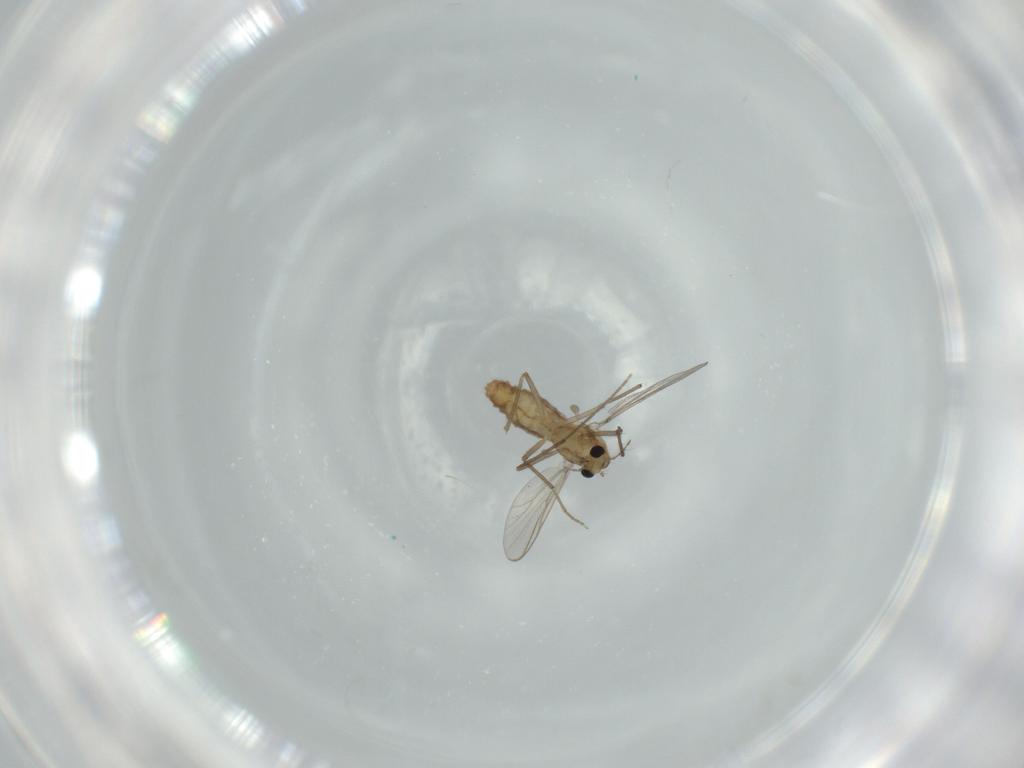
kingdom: Animalia
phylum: Arthropoda
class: Insecta
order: Diptera
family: Chironomidae
